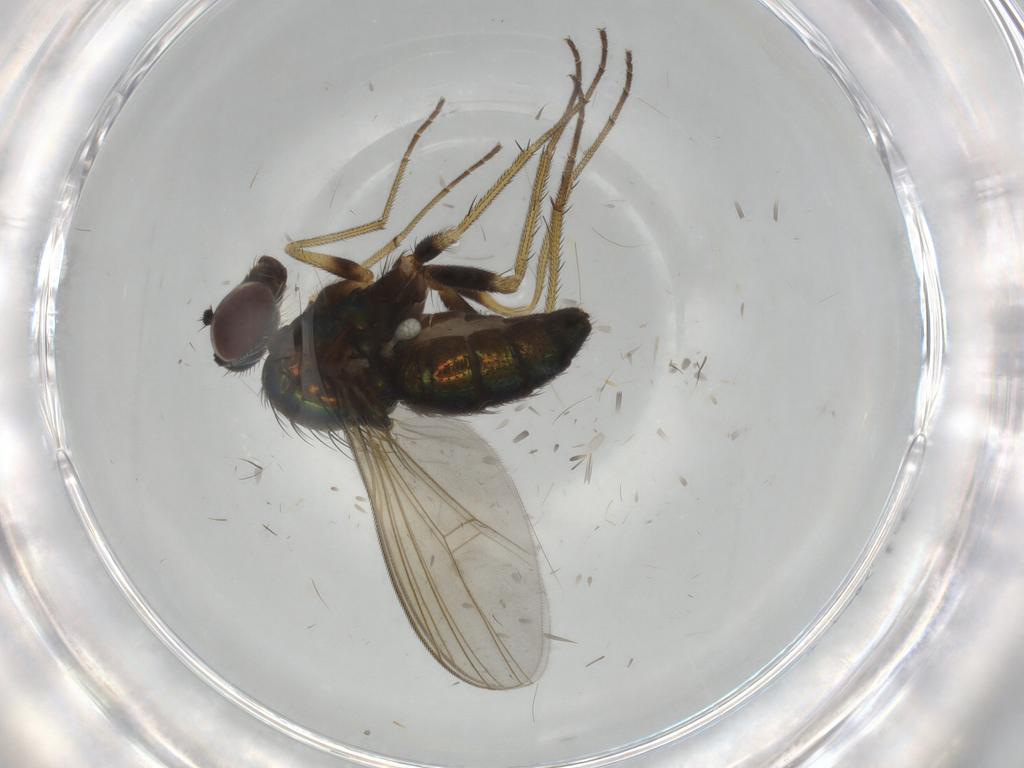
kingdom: Animalia
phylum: Arthropoda
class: Insecta
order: Diptera
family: Dolichopodidae
